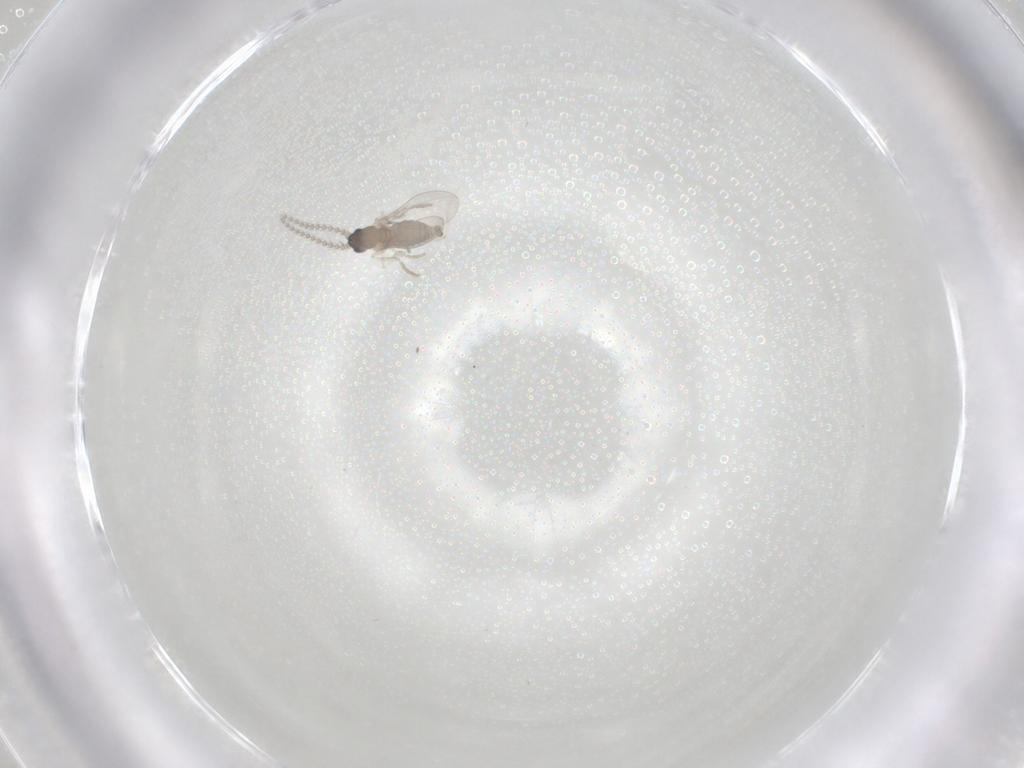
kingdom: Animalia
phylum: Arthropoda
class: Insecta
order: Diptera
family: Cecidomyiidae
